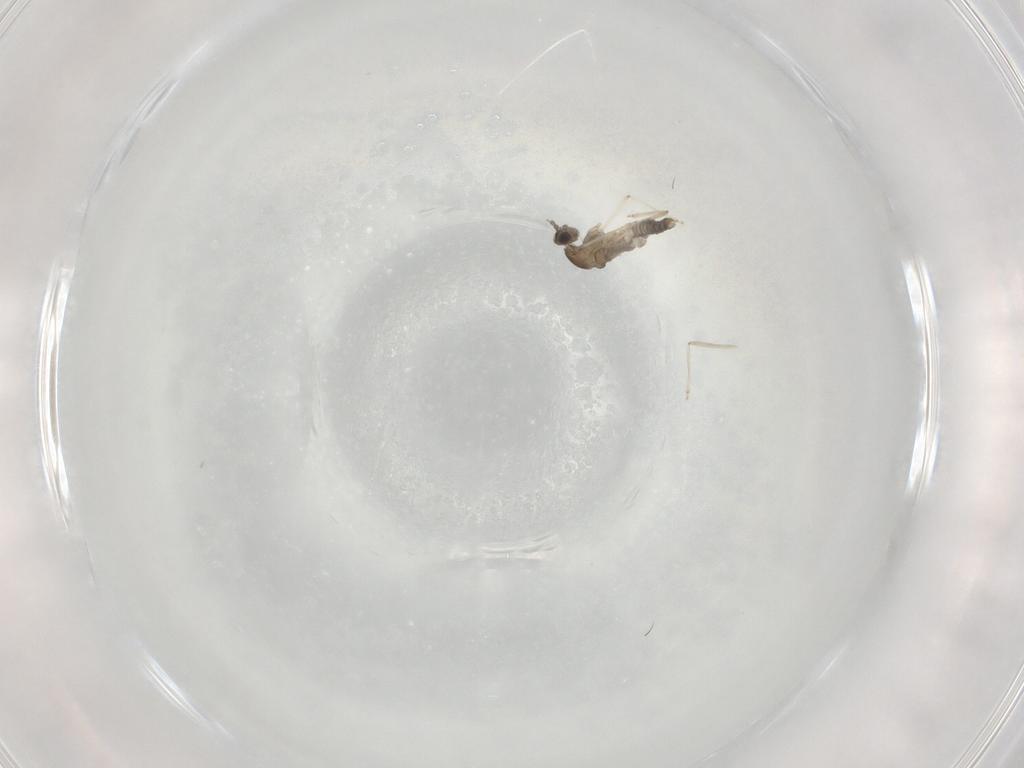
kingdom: Animalia
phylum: Arthropoda
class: Insecta
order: Diptera
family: Cecidomyiidae
